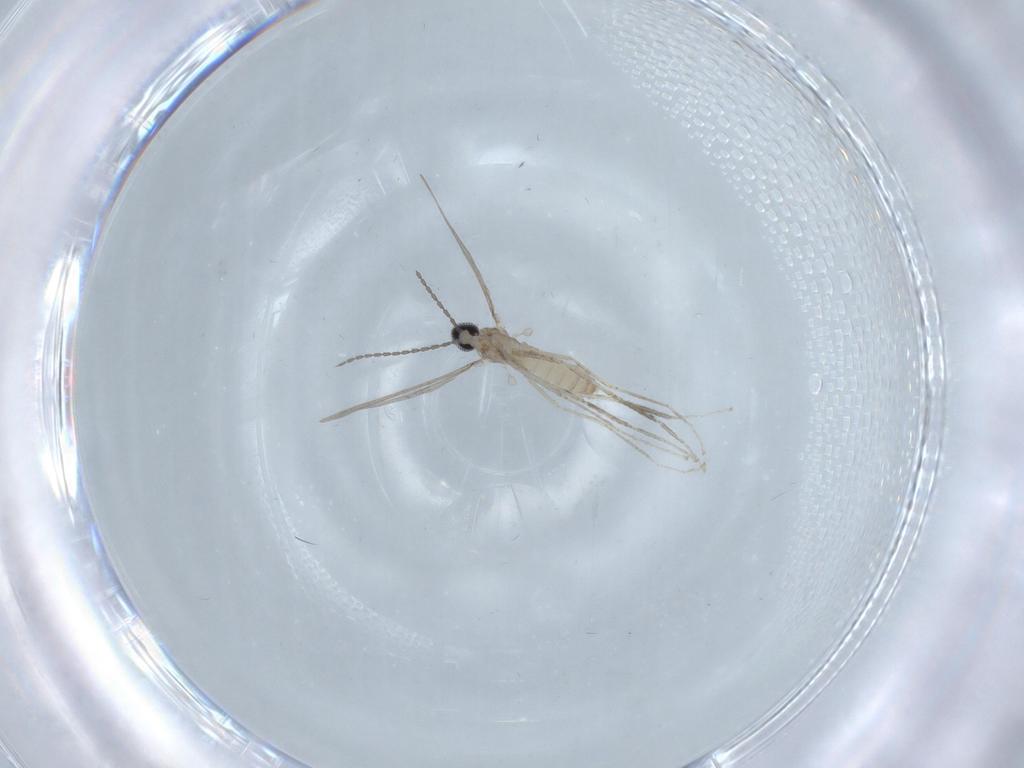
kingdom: Animalia
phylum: Arthropoda
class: Insecta
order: Diptera
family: Cecidomyiidae
